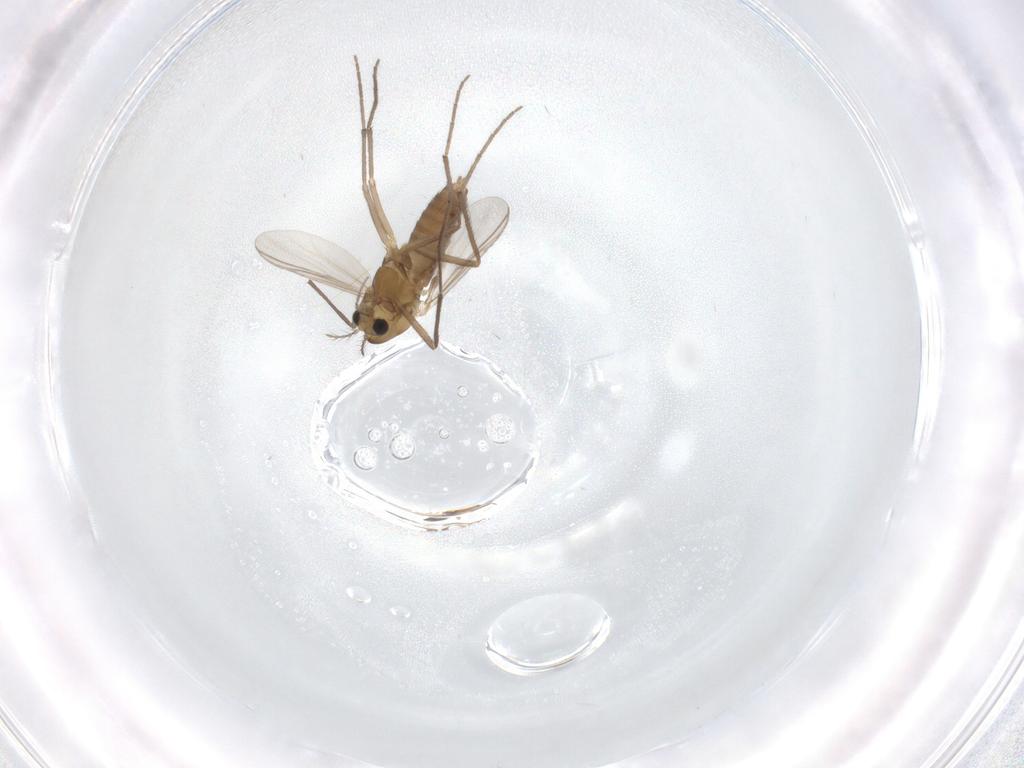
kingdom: Animalia
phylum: Arthropoda
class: Insecta
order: Diptera
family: Chironomidae
